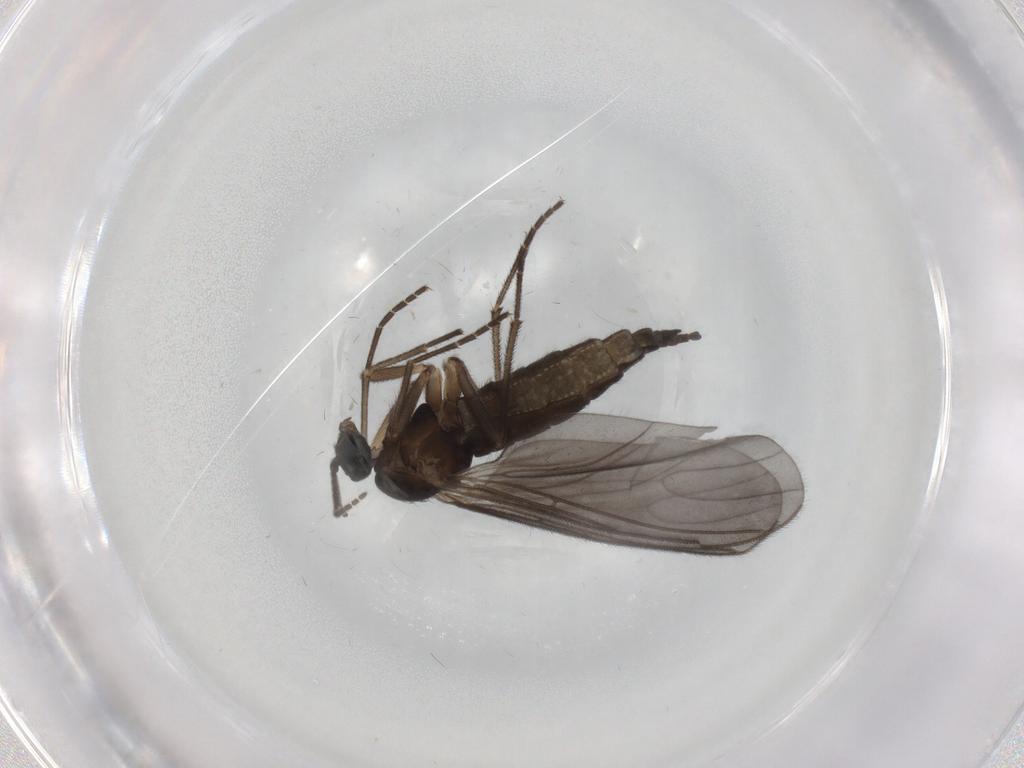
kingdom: Animalia
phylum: Arthropoda
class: Insecta
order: Diptera
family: Sciaridae
